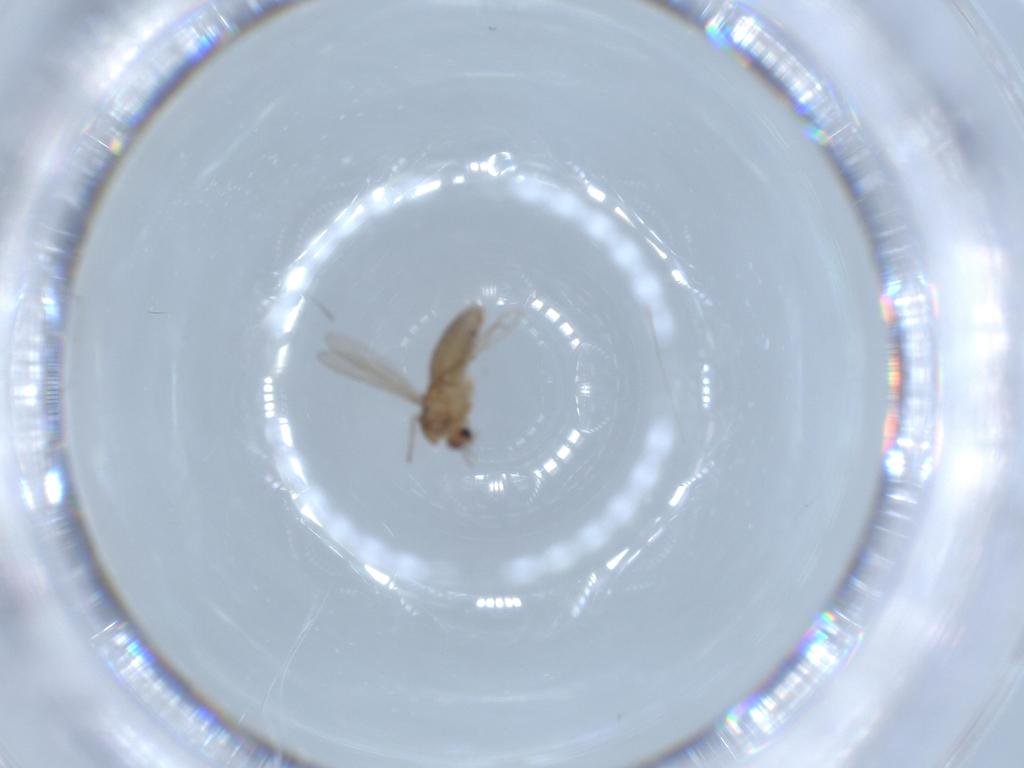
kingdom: Animalia
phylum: Arthropoda
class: Insecta
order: Diptera
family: Chironomidae
